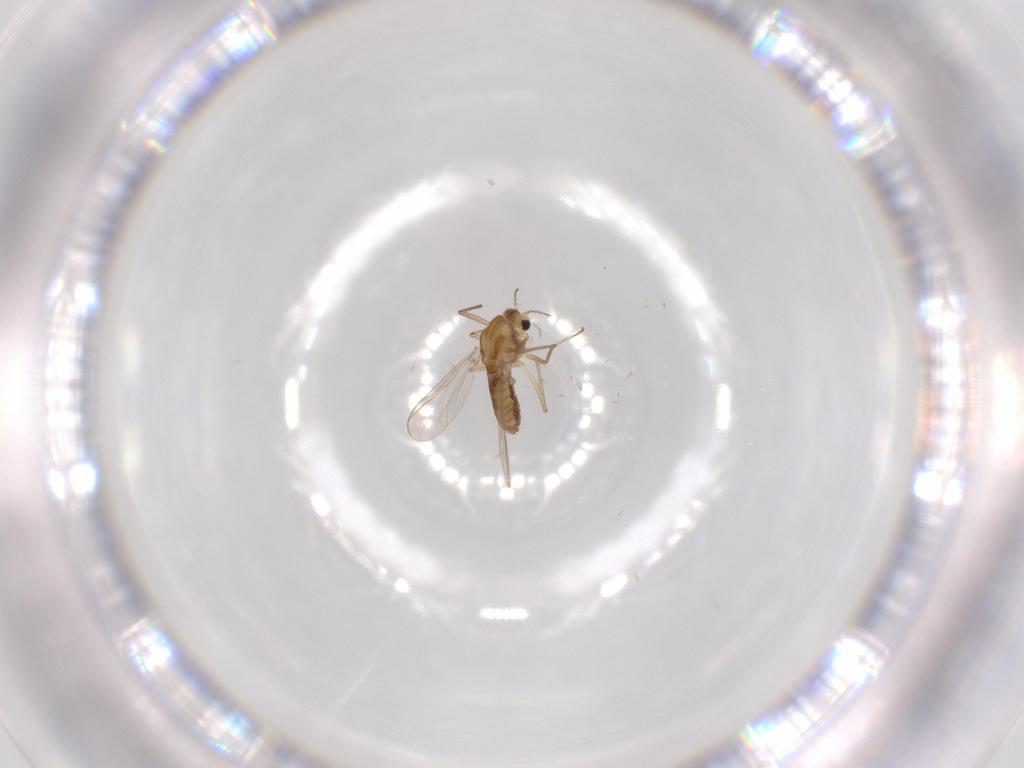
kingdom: Animalia
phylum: Arthropoda
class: Insecta
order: Diptera
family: Chironomidae
